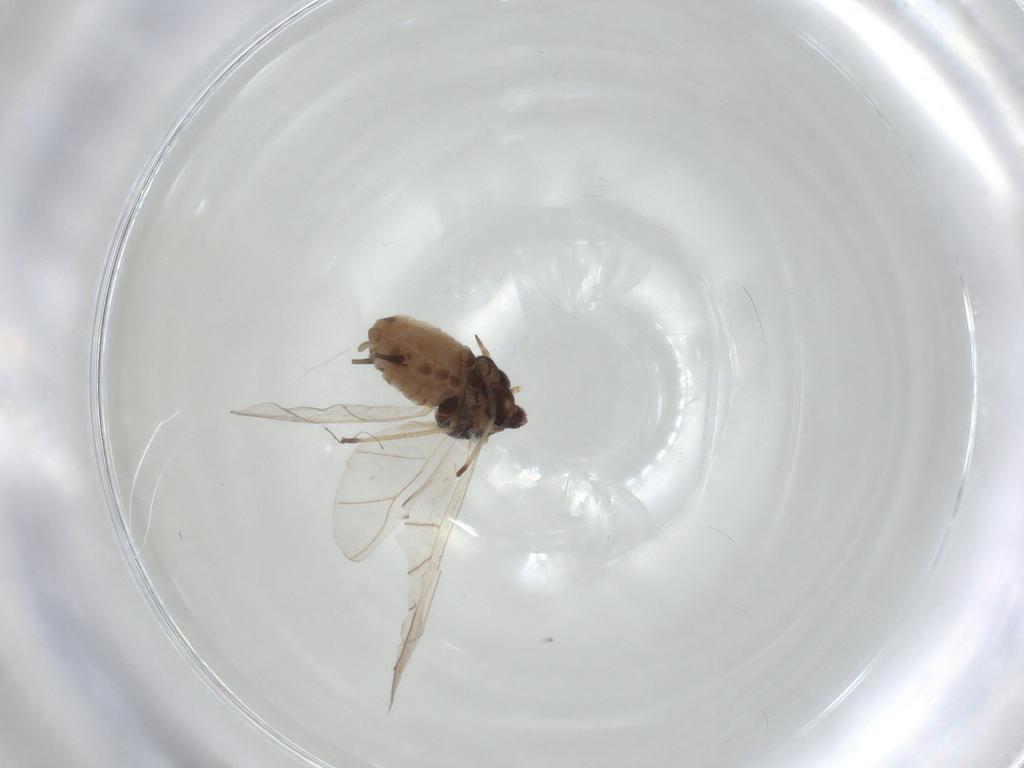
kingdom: Animalia
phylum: Arthropoda
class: Insecta
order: Hemiptera
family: Aphididae
